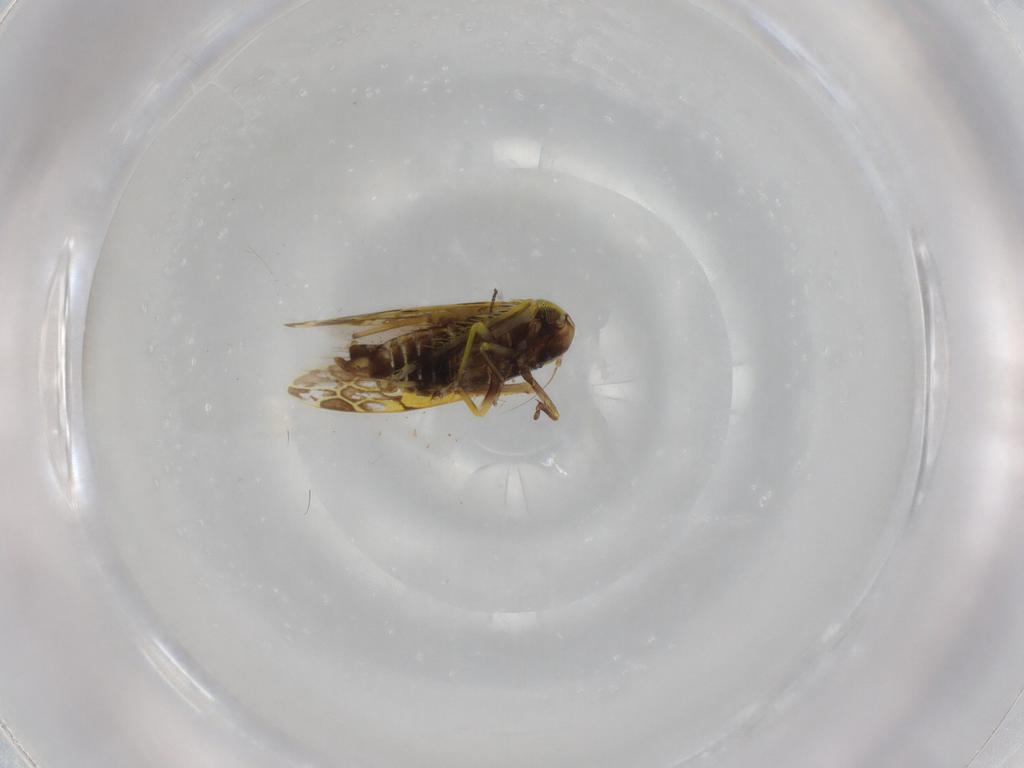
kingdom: Animalia
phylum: Arthropoda
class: Insecta
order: Hemiptera
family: Cicadellidae
